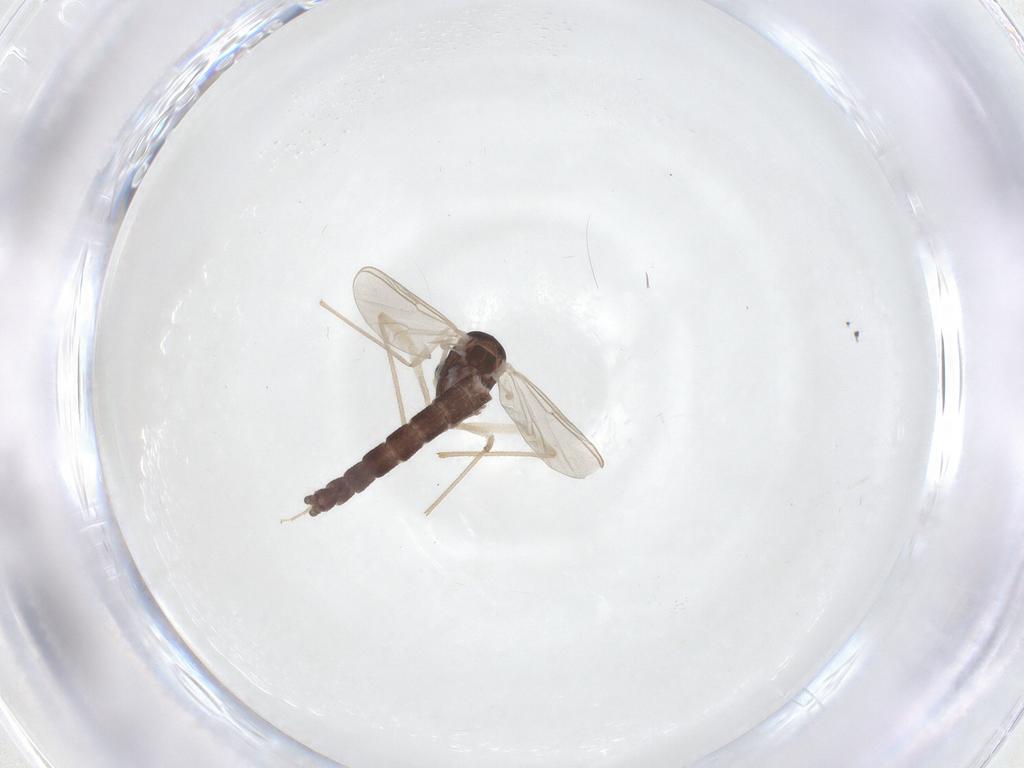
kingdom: Animalia
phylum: Arthropoda
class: Insecta
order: Diptera
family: Chironomidae
